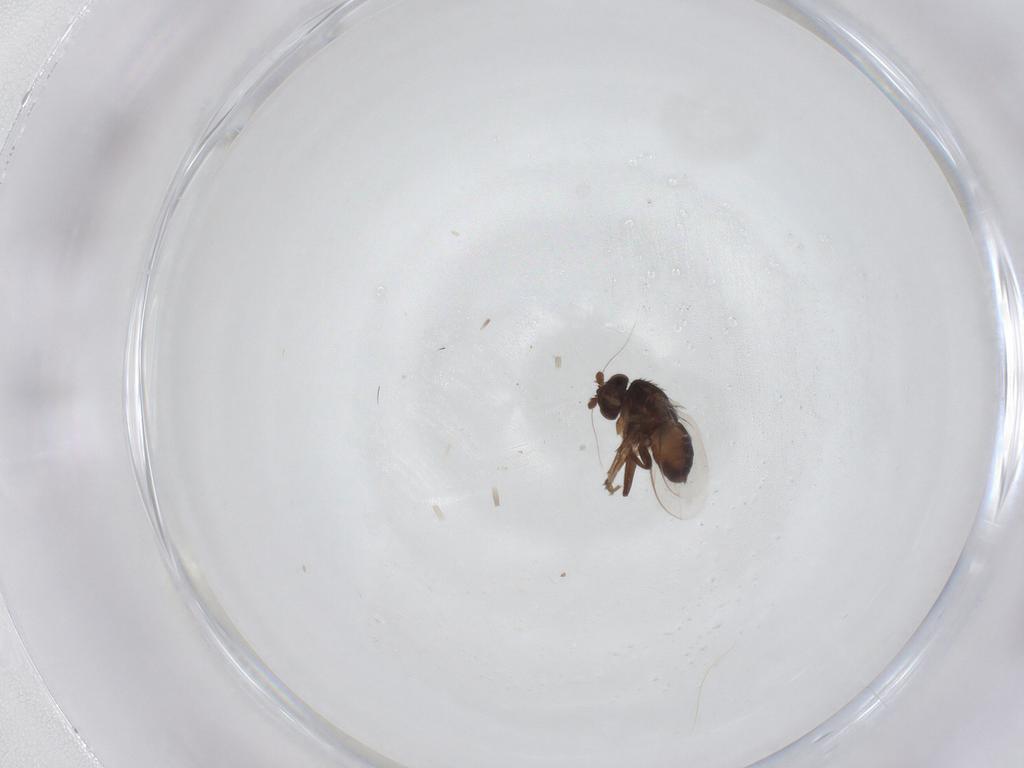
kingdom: Animalia
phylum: Arthropoda
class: Insecta
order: Diptera
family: Sphaeroceridae
